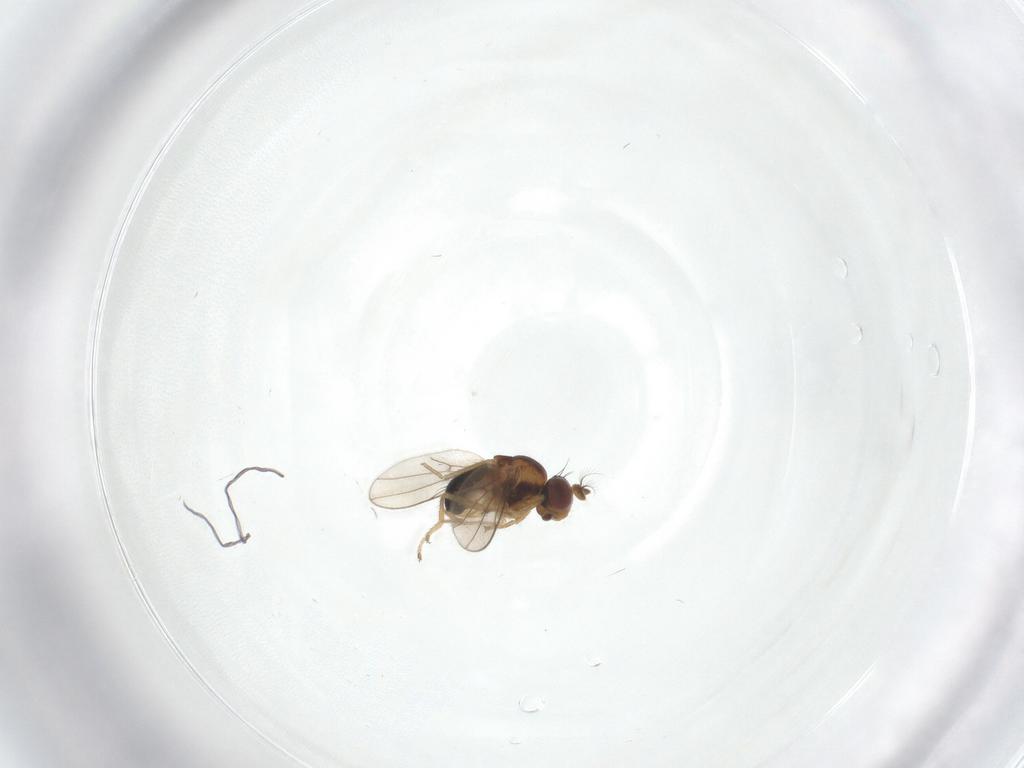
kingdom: Animalia
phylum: Arthropoda
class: Insecta
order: Diptera
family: Ephydridae
